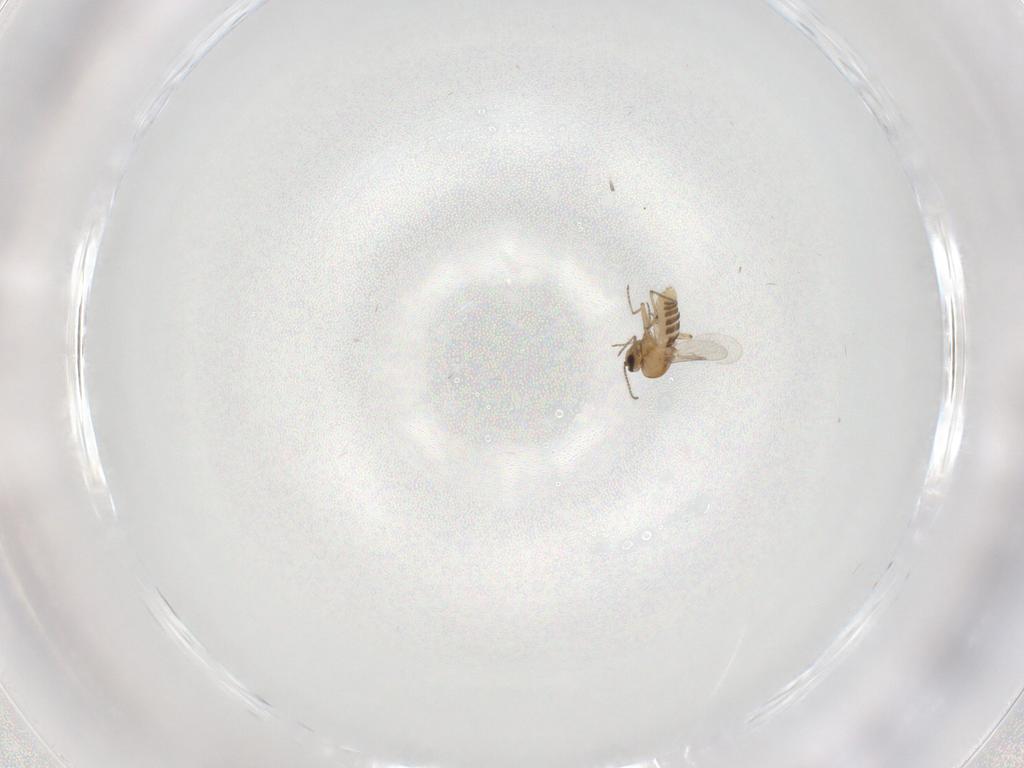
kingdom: Animalia
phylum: Arthropoda
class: Insecta
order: Diptera
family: Ceratopogonidae
